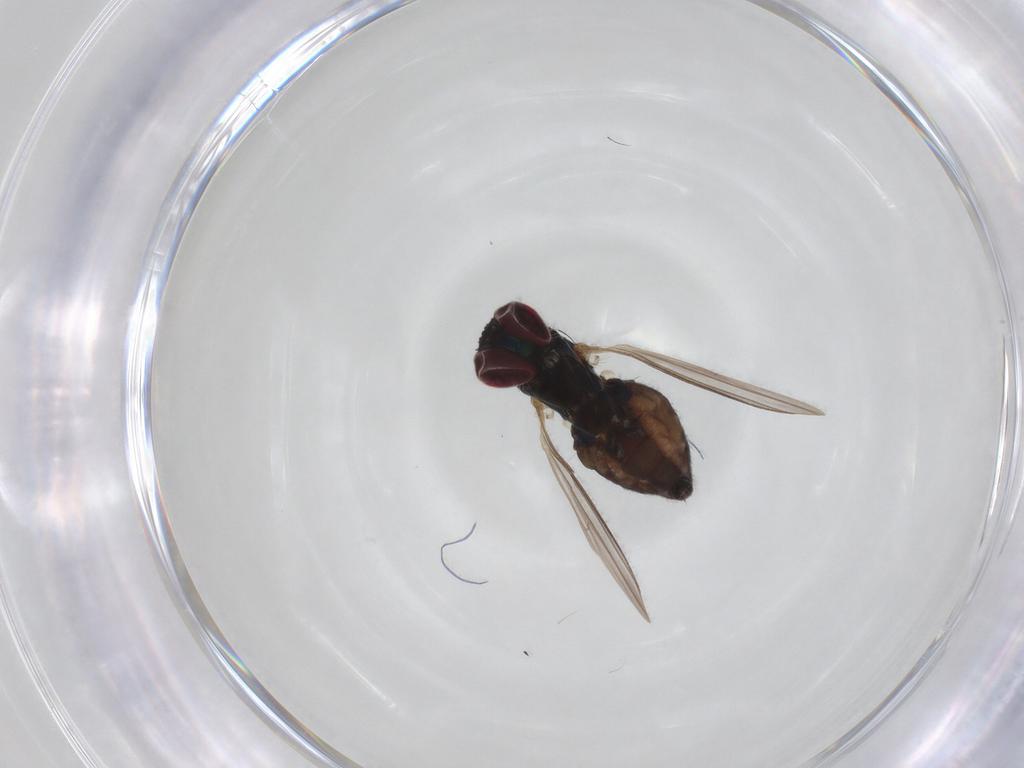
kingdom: Animalia
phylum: Arthropoda
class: Insecta
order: Diptera
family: Dolichopodidae
